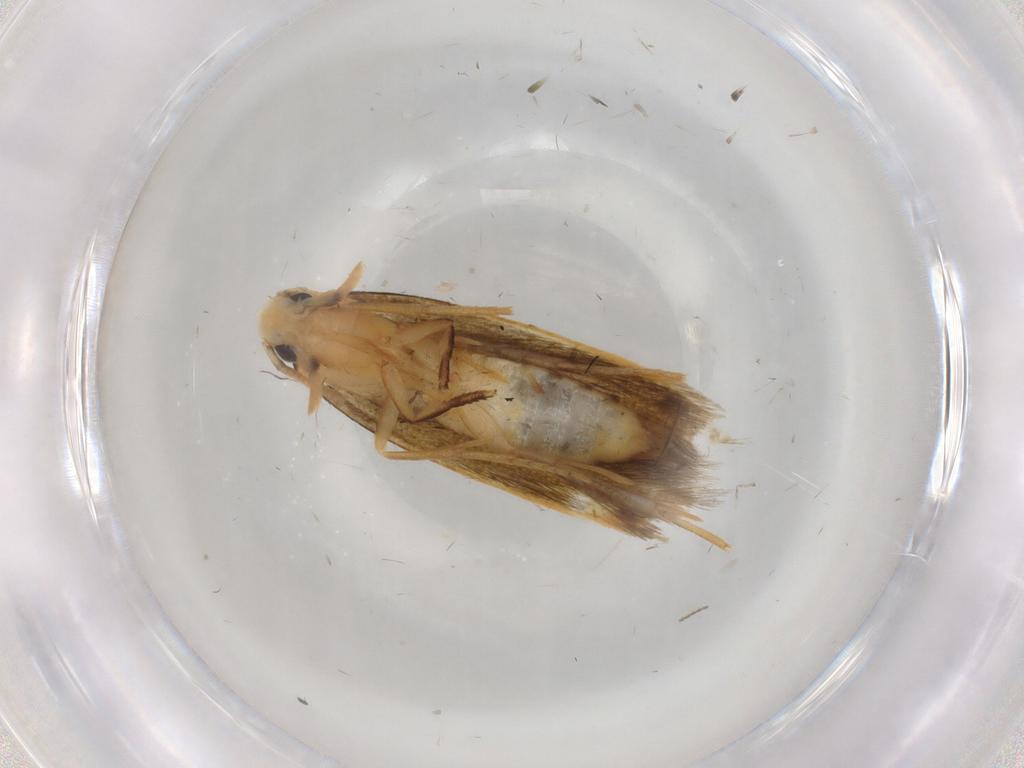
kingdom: Animalia
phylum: Arthropoda
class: Insecta
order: Lepidoptera
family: Tineidae
